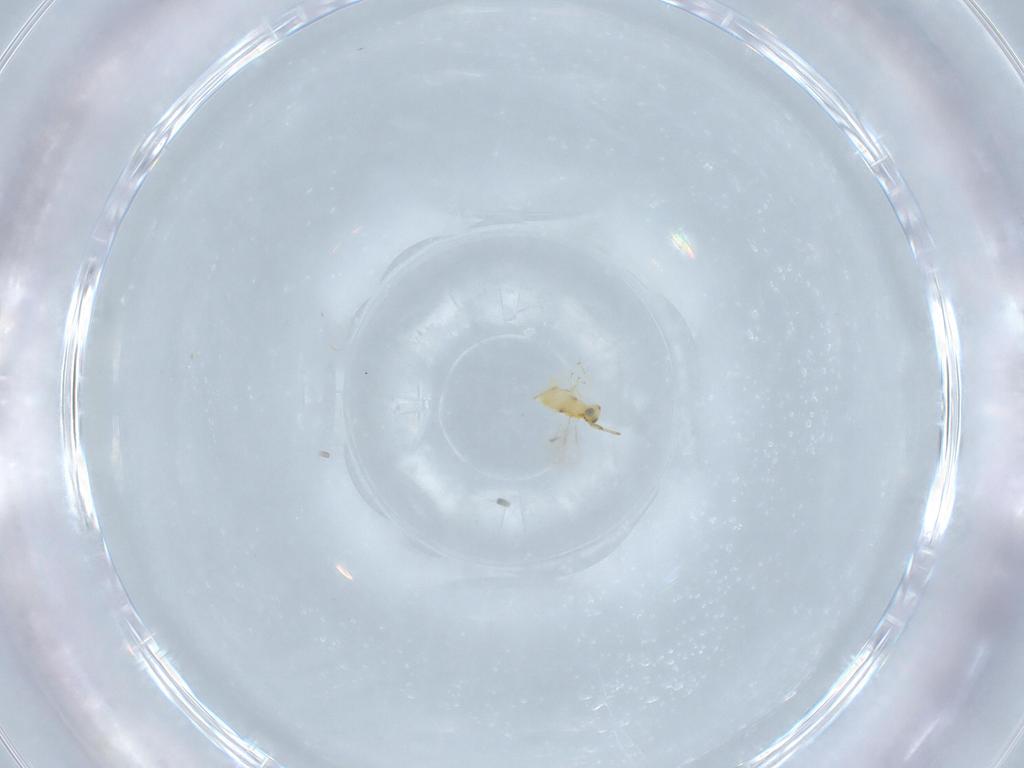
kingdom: Animalia
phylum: Arthropoda
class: Insecta
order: Hymenoptera
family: Aphelinidae
